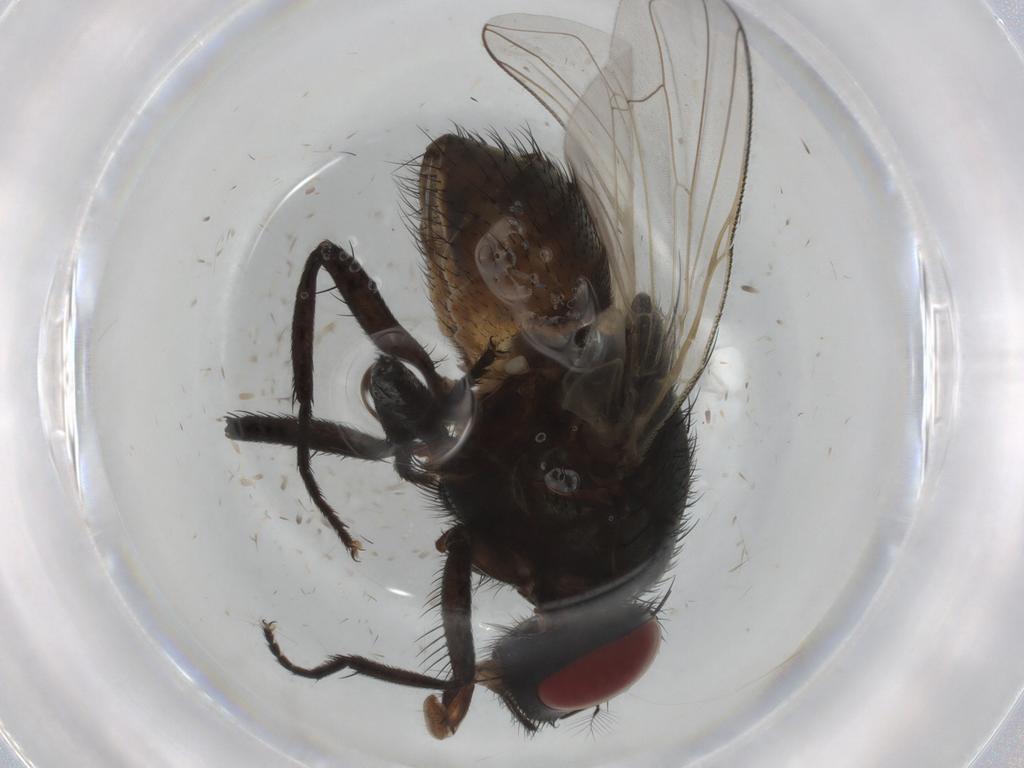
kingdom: Animalia
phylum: Arthropoda
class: Insecta
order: Diptera
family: Muscidae
